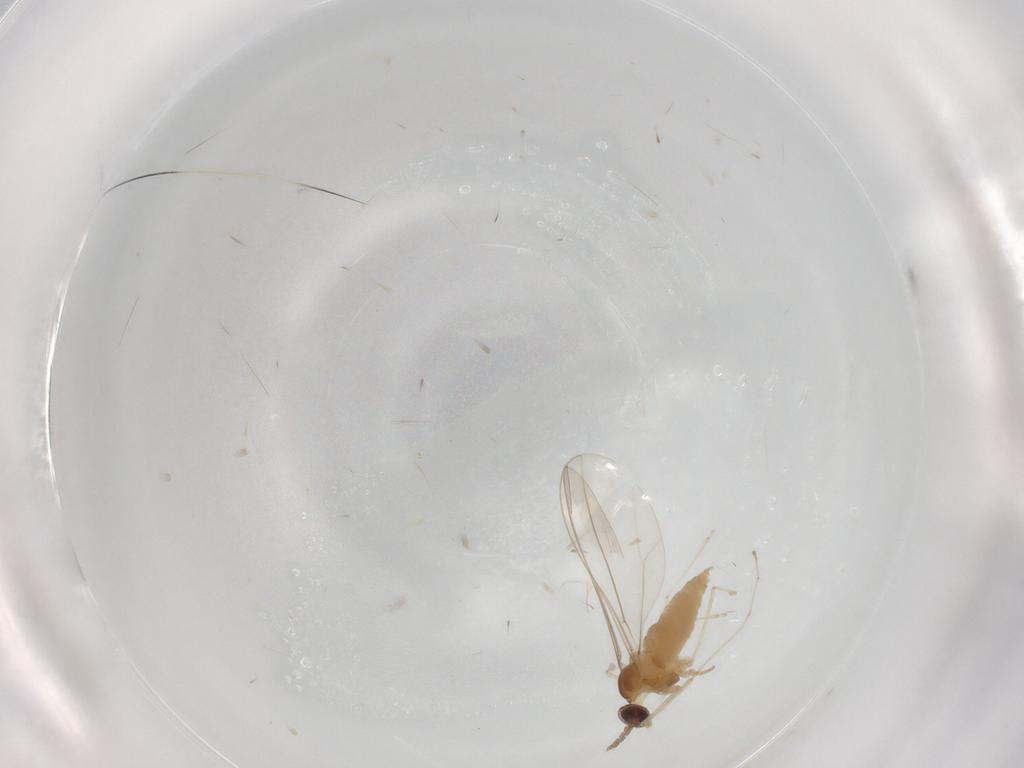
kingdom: Animalia
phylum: Arthropoda
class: Insecta
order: Diptera
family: Cecidomyiidae
